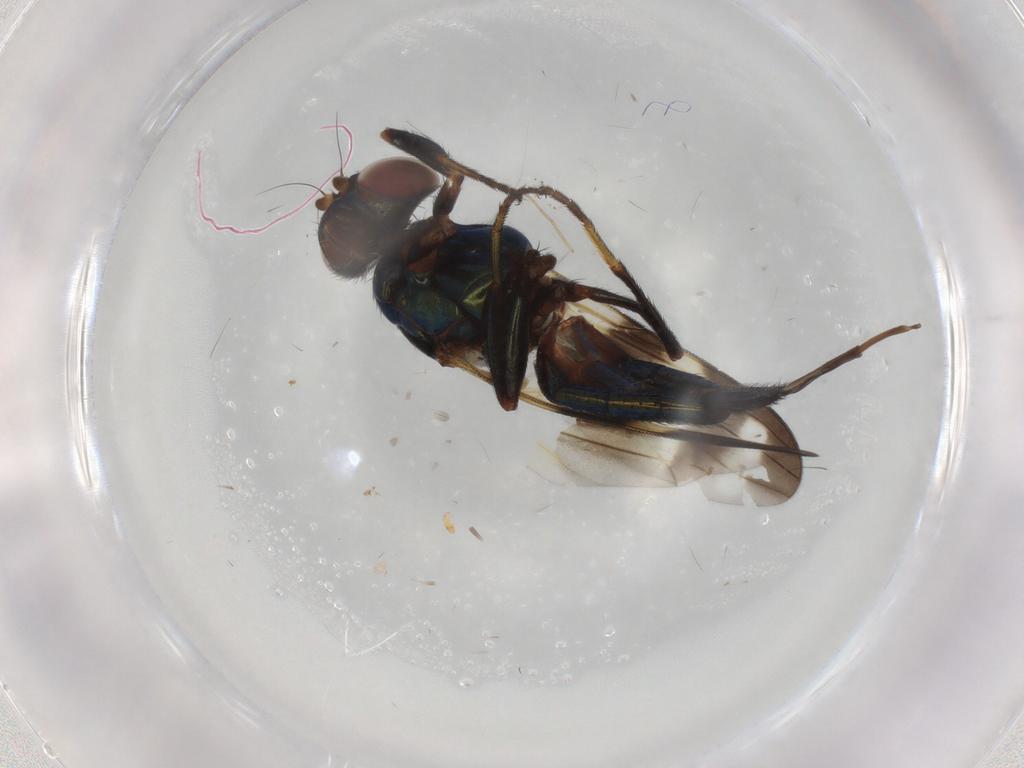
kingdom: Animalia
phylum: Arthropoda
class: Insecta
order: Diptera
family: Ulidiidae
